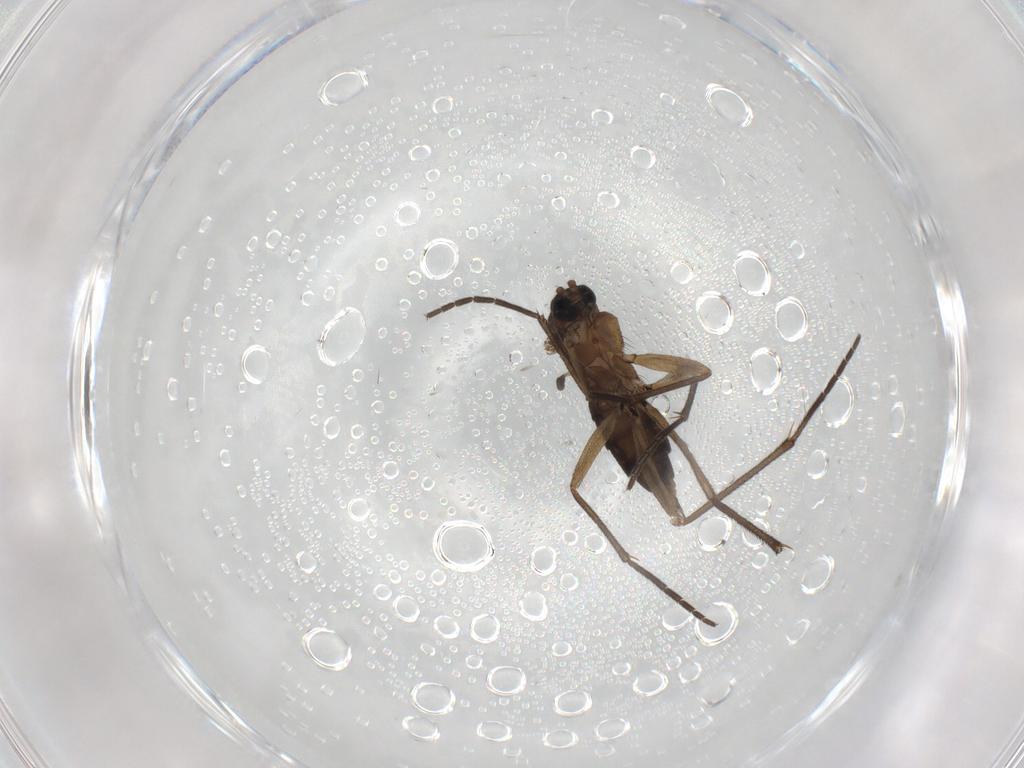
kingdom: Animalia
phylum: Arthropoda
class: Insecta
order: Diptera
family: Sciaridae
